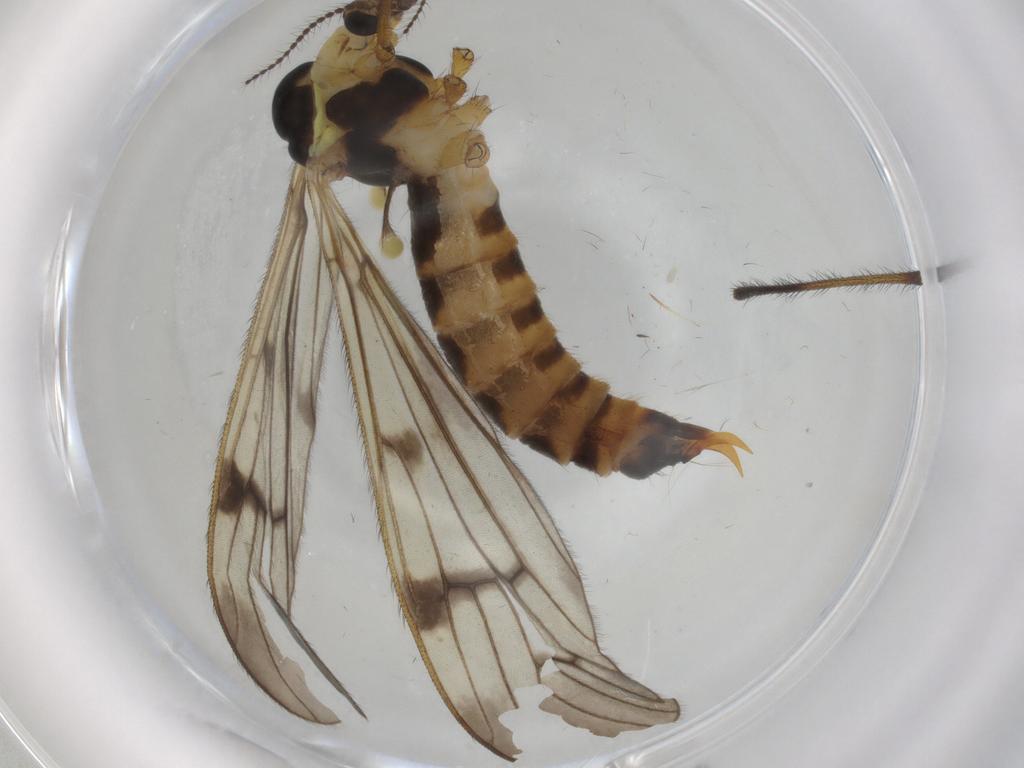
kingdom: Animalia
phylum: Arthropoda
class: Insecta
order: Diptera
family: Limoniidae
